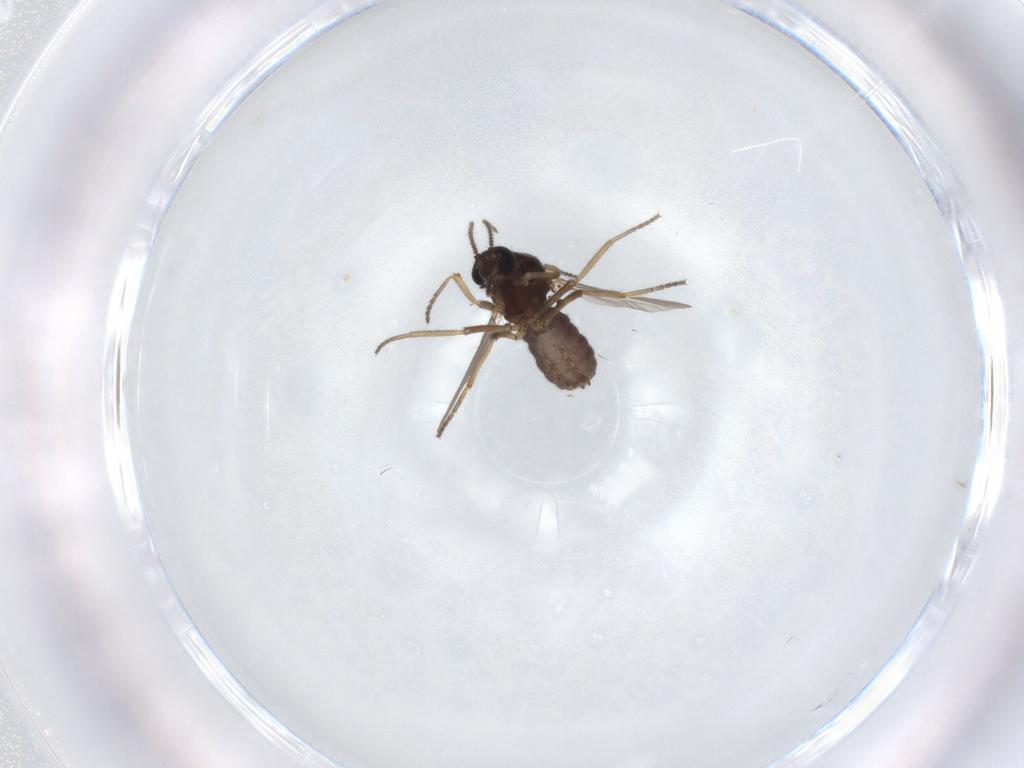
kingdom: Animalia
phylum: Arthropoda
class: Insecta
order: Diptera
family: Ceratopogonidae
